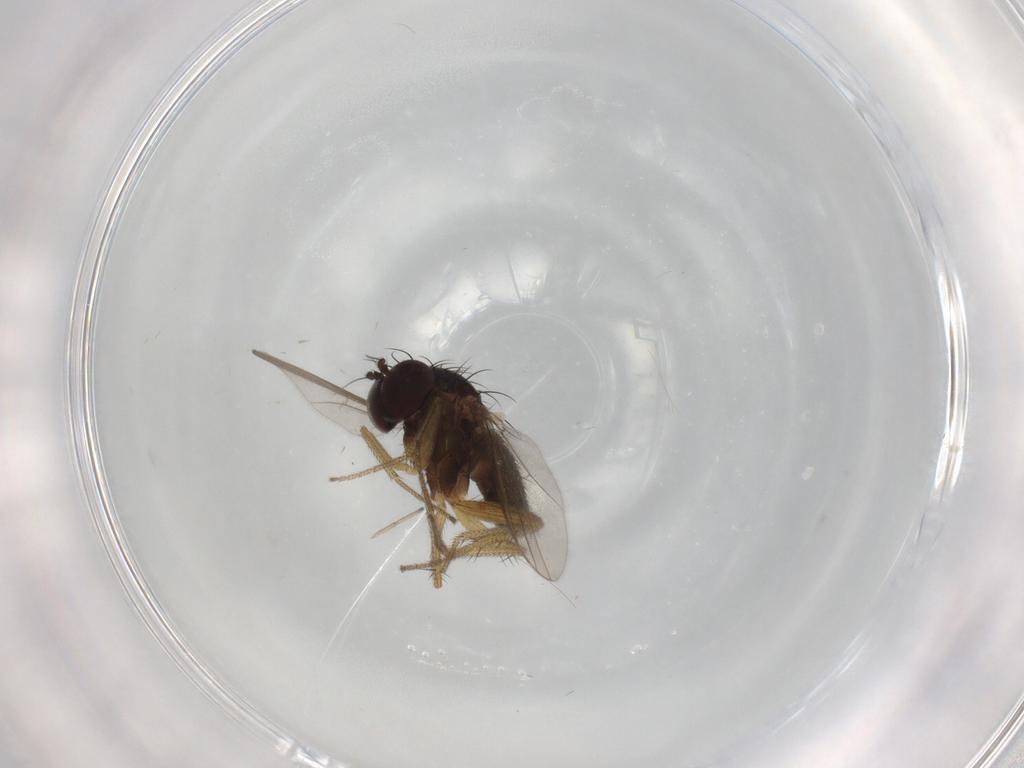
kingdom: Animalia
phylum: Arthropoda
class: Insecta
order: Diptera
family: Dolichopodidae
